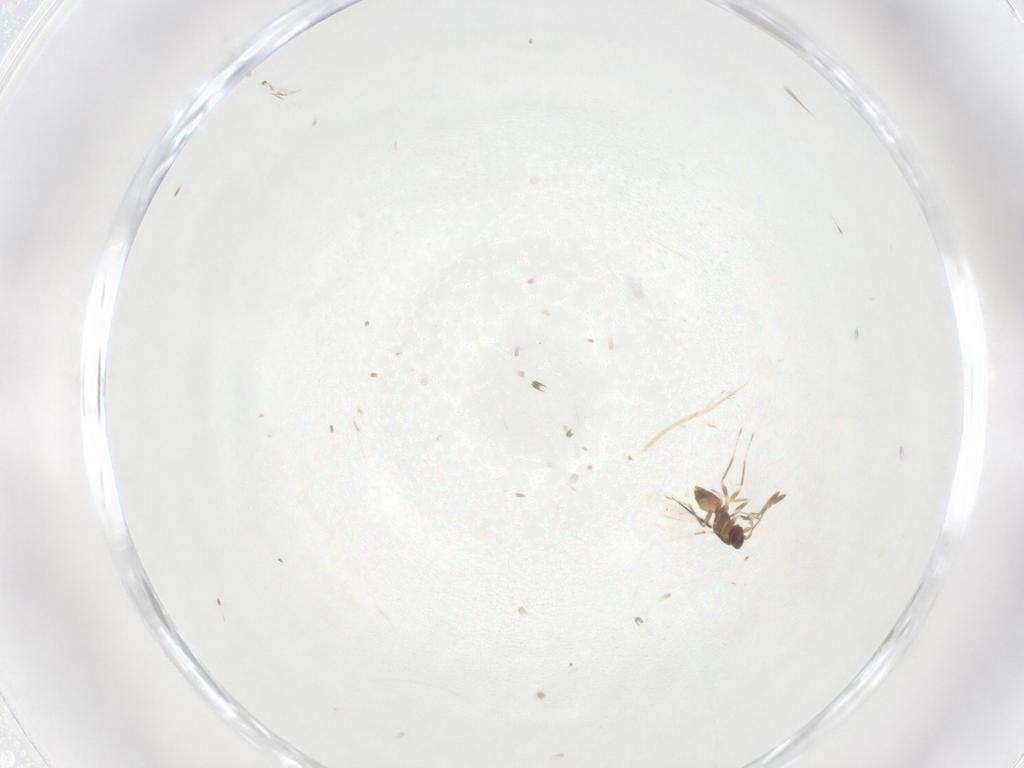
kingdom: Animalia
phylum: Arthropoda
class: Insecta
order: Hymenoptera
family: Mymaridae
